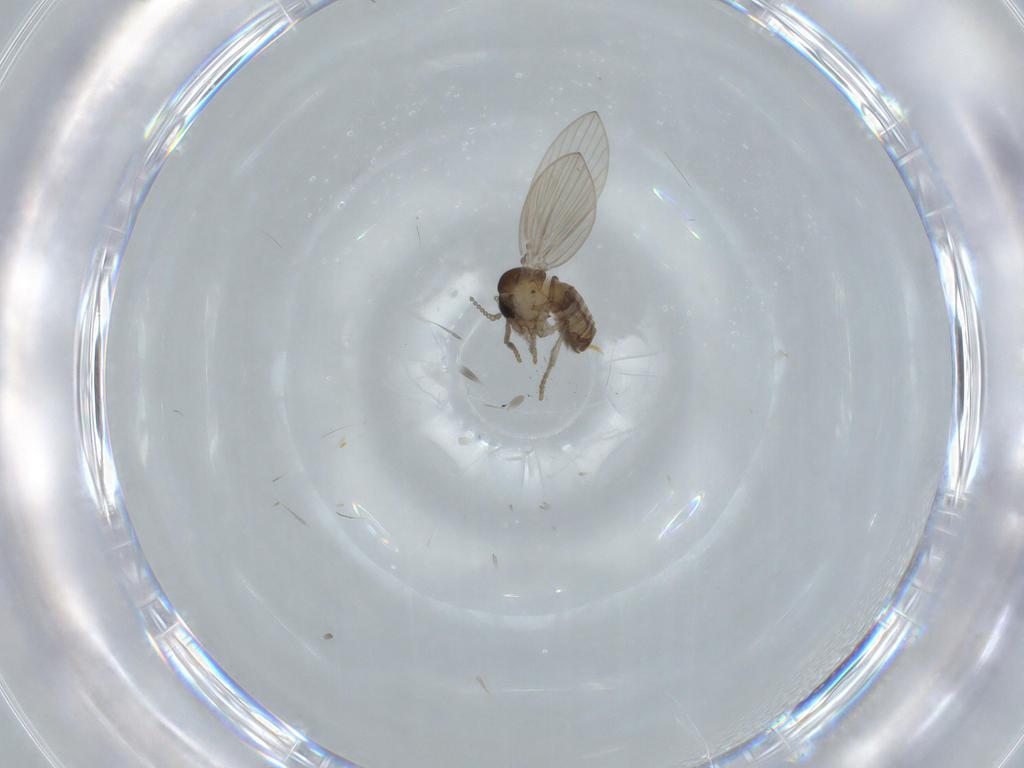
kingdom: Animalia
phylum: Arthropoda
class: Insecta
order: Diptera
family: Psychodidae
